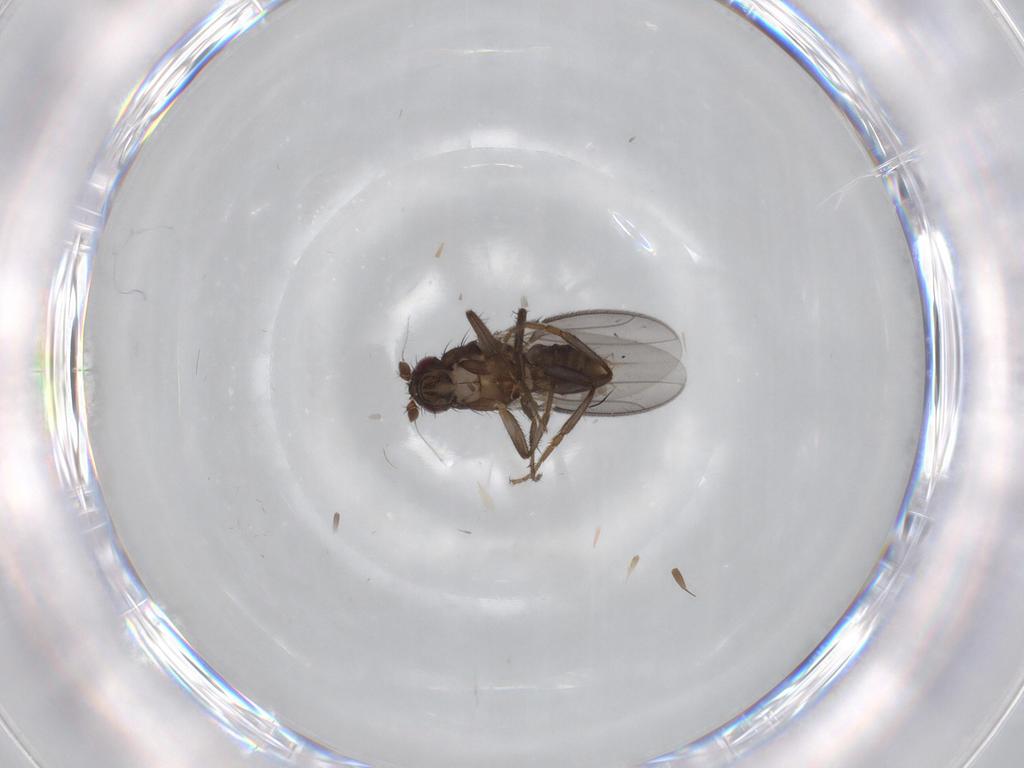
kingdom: Animalia
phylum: Arthropoda
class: Insecta
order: Diptera
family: Sphaeroceridae
